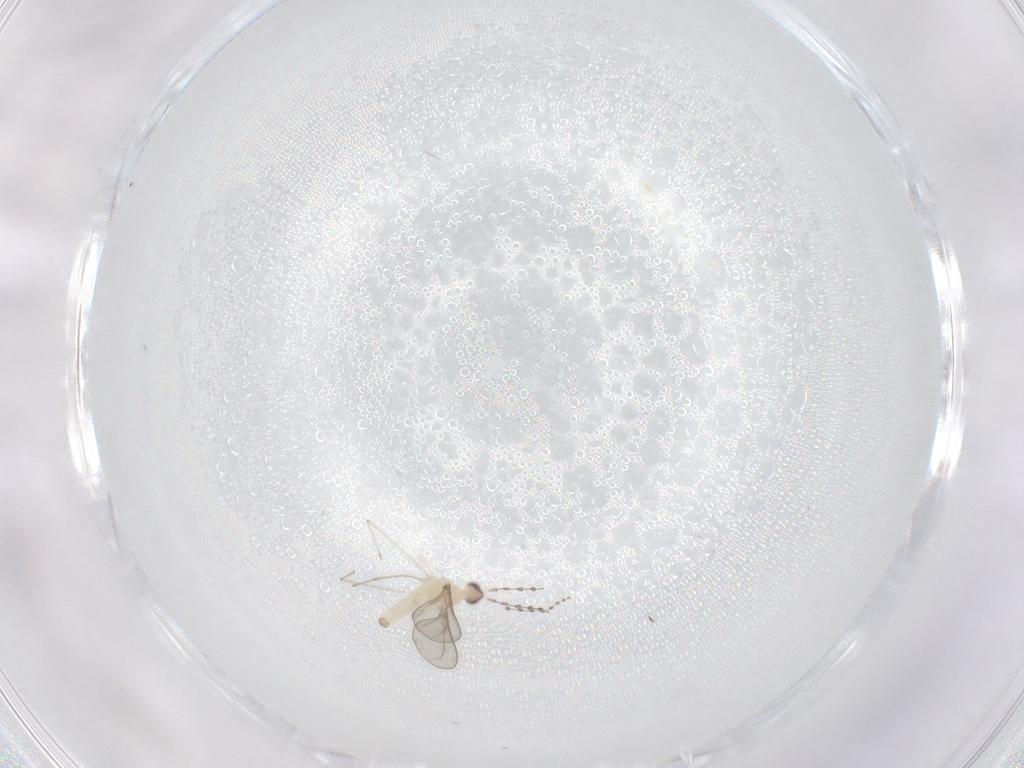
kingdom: Animalia
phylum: Arthropoda
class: Insecta
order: Diptera
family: Cecidomyiidae
